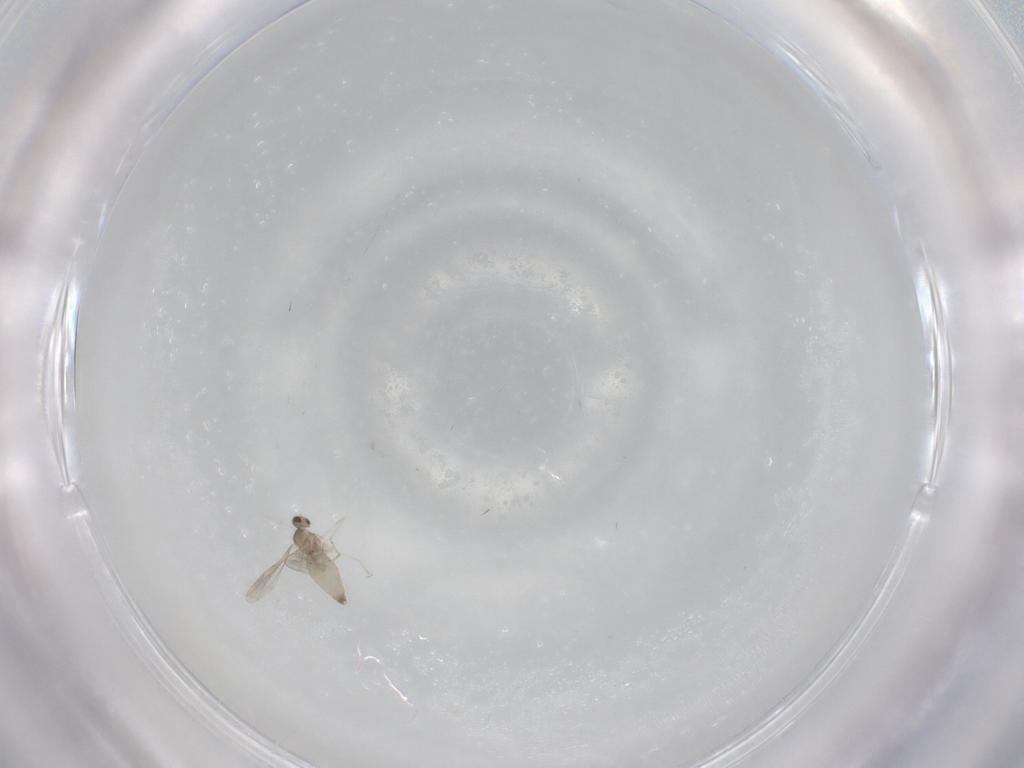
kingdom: Animalia
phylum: Arthropoda
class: Insecta
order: Diptera
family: Cecidomyiidae
